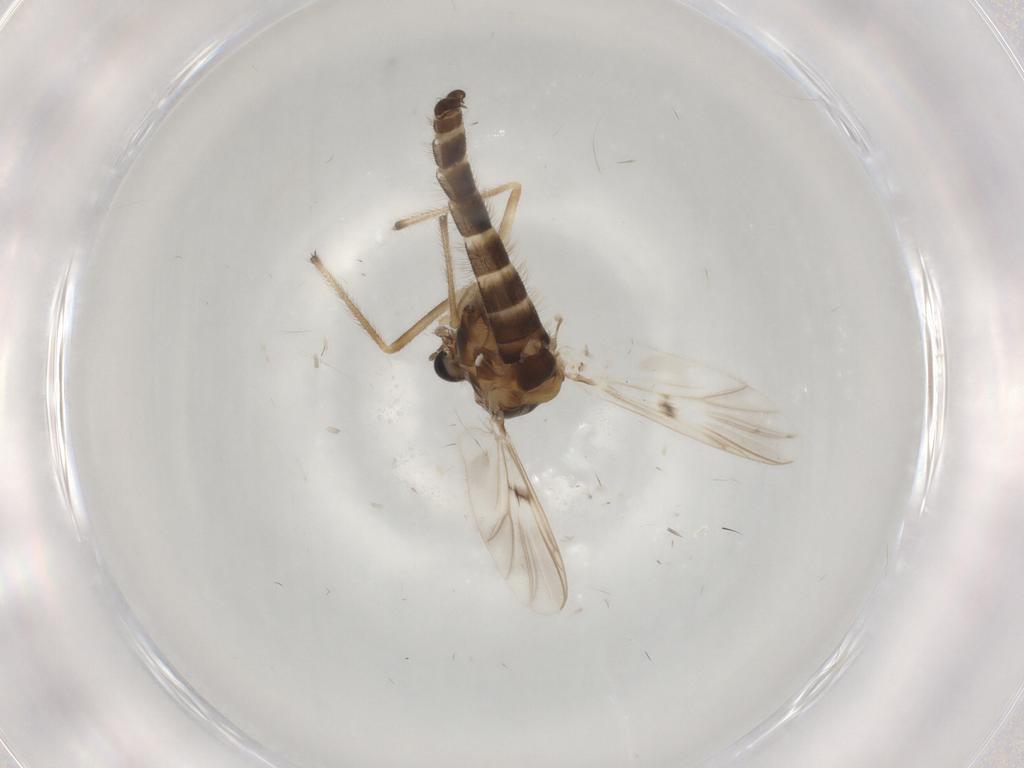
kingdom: Animalia
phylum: Arthropoda
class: Insecta
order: Diptera
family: Chironomidae
